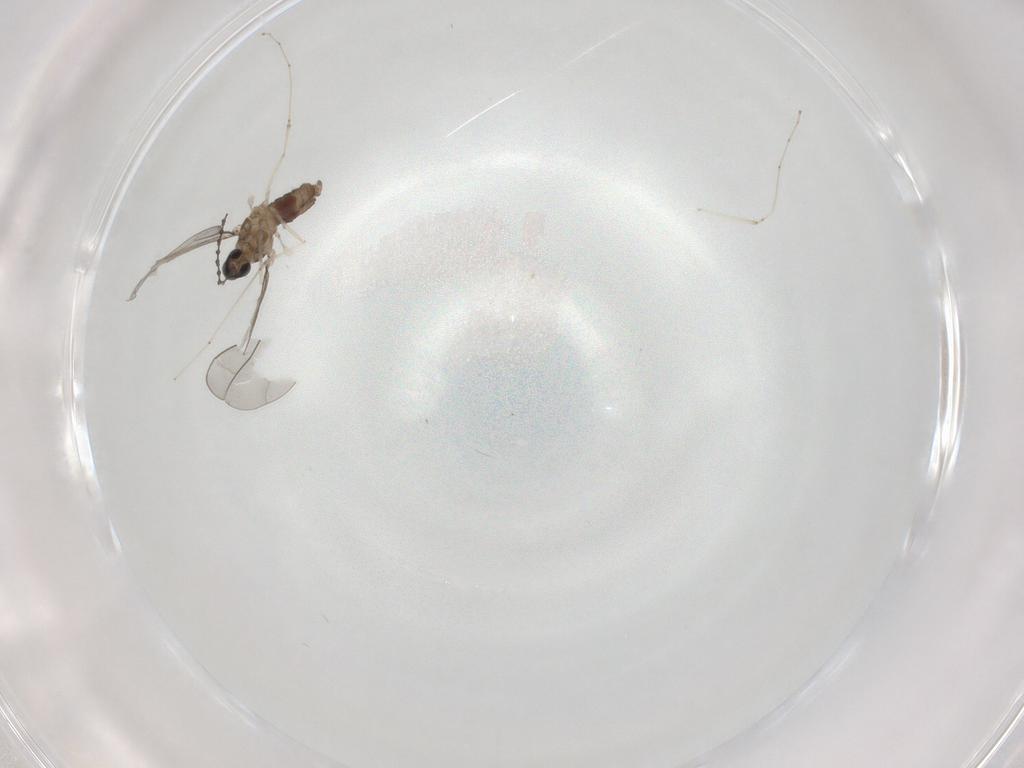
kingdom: Animalia
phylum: Arthropoda
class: Insecta
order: Diptera
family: Cecidomyiidae
